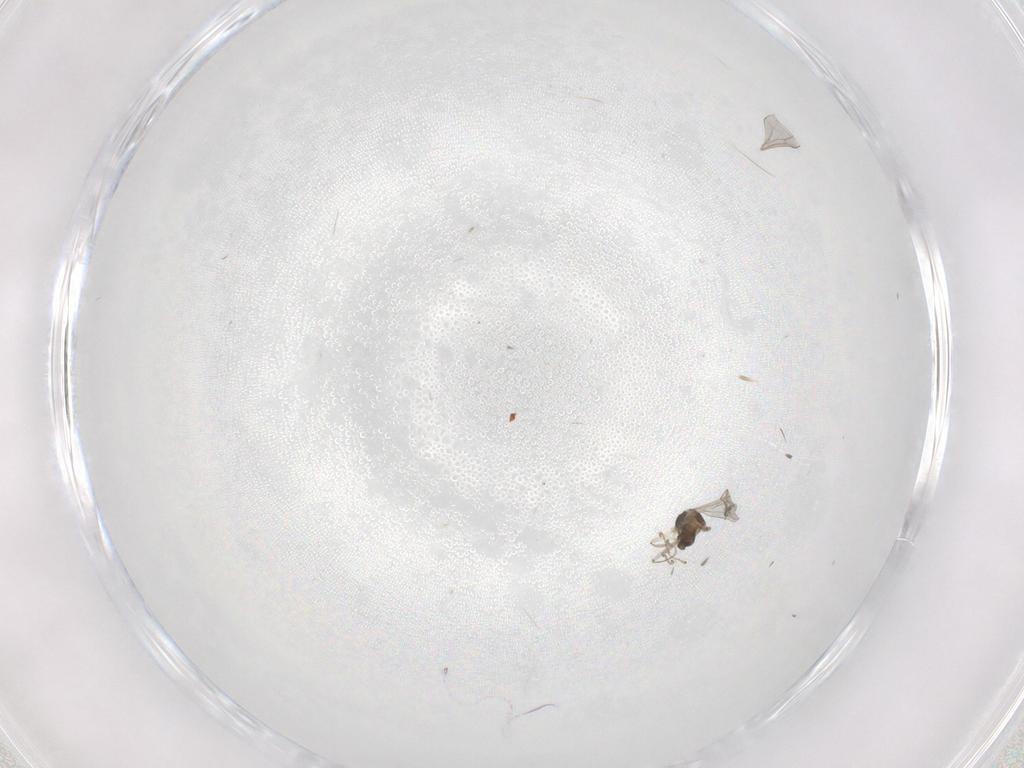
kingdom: Animalia
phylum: Arthropoda
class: Insecta
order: Diptera
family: Cecidomyiidae
